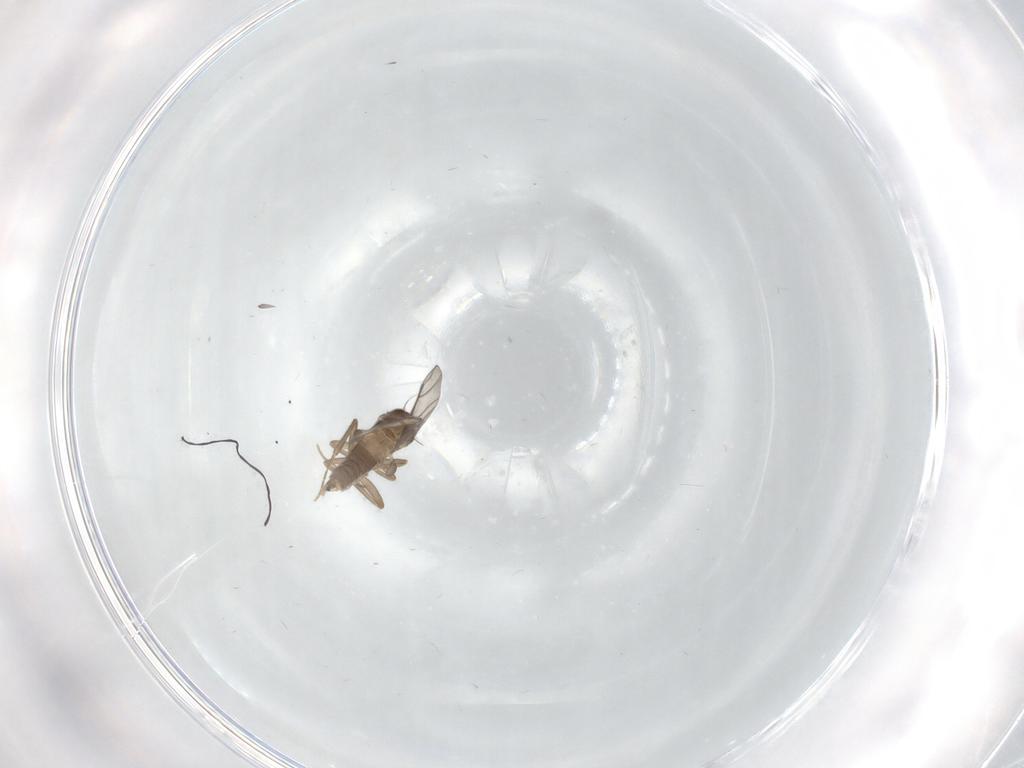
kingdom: Animalia
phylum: Arthropoda
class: Insecta
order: Diptera
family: Cecidomyiidae
